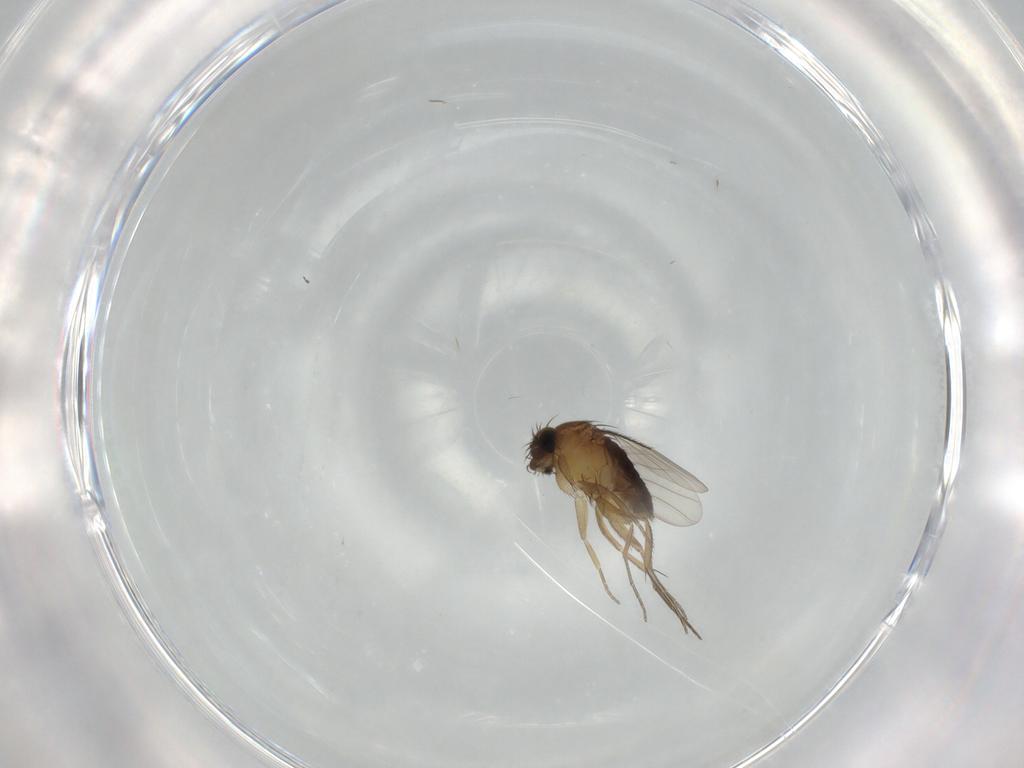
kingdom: Animalia
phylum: Arthropoda
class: Insecta
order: Diptera
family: Phoridae
